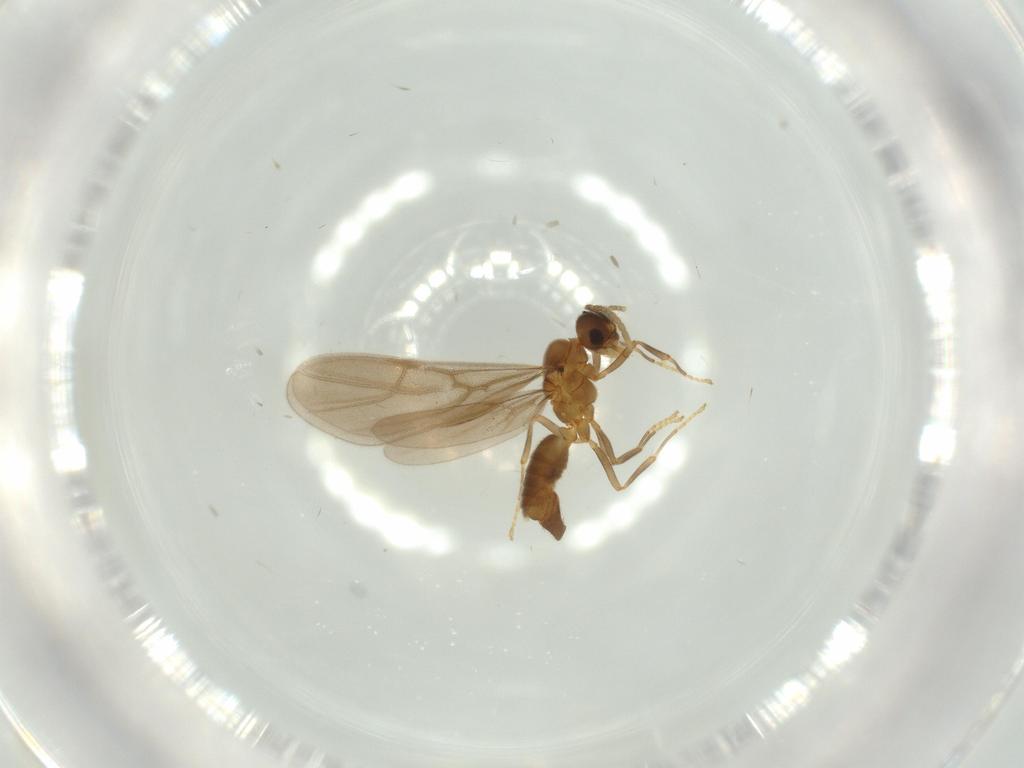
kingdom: Animalia
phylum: Arthropoda
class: Insecta
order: Hymenoptera
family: Formicidae
